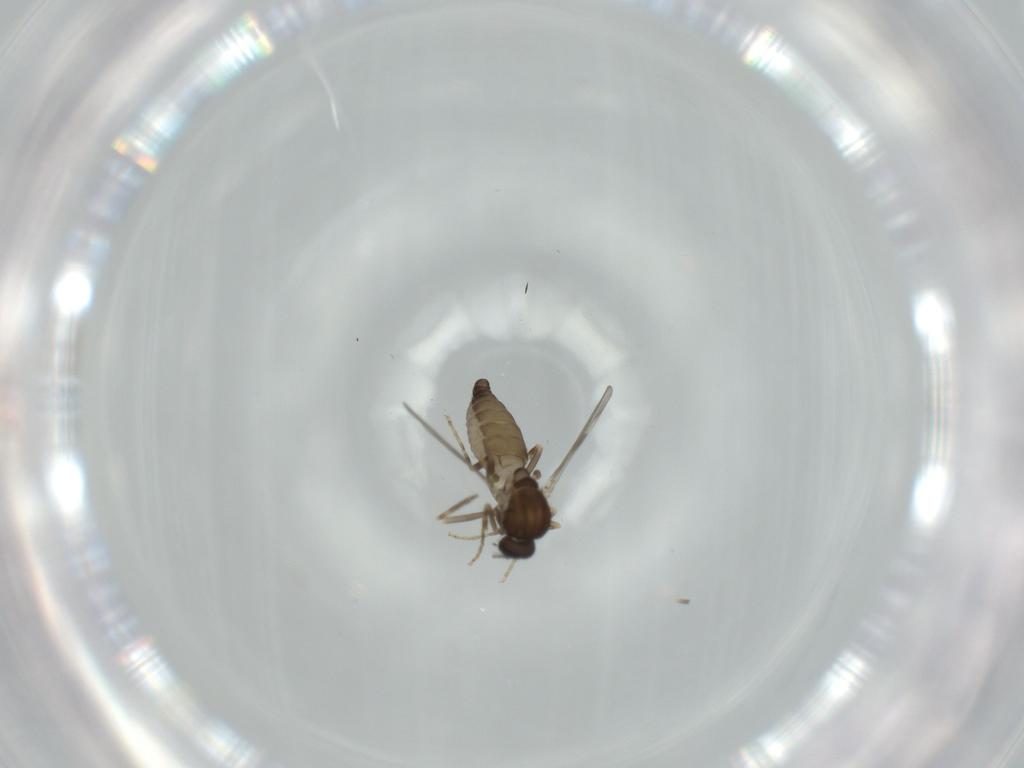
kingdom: Animalia
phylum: Arthropoda
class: Insecta
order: Diptera
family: Ceratopogonidae
